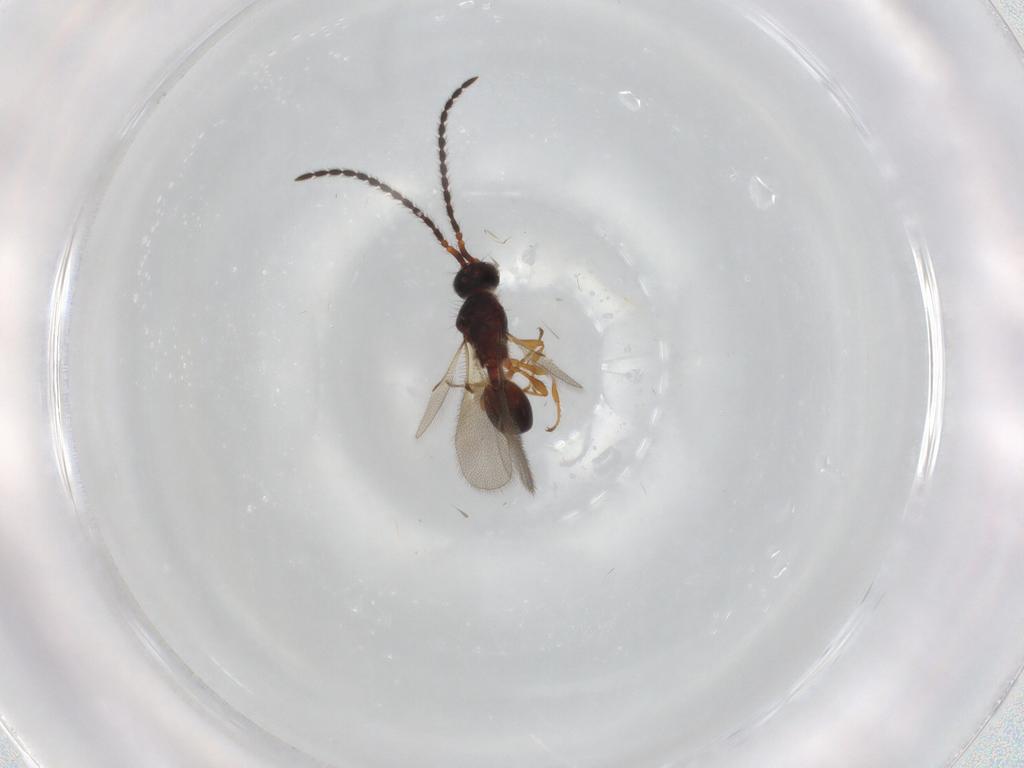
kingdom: Animalia
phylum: Arthropoda
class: Insecta
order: Hymenoptera
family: Diapriidae
